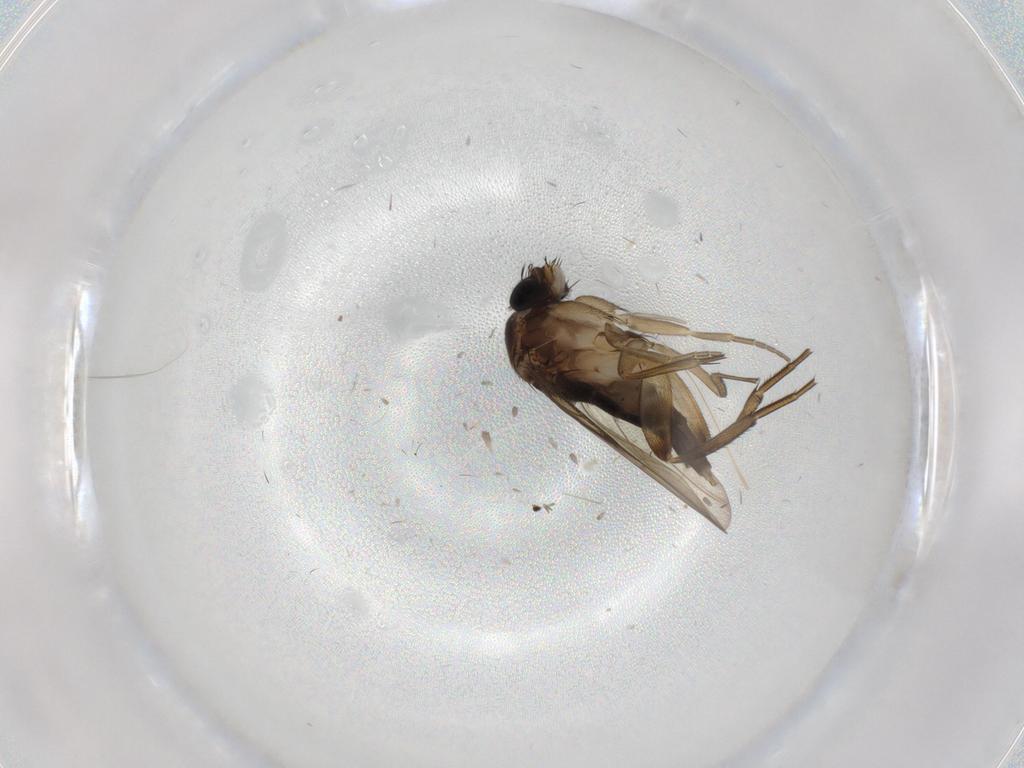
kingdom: Animalia
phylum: Arthropoda
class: Insecta
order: Diptera
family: Phoridae
